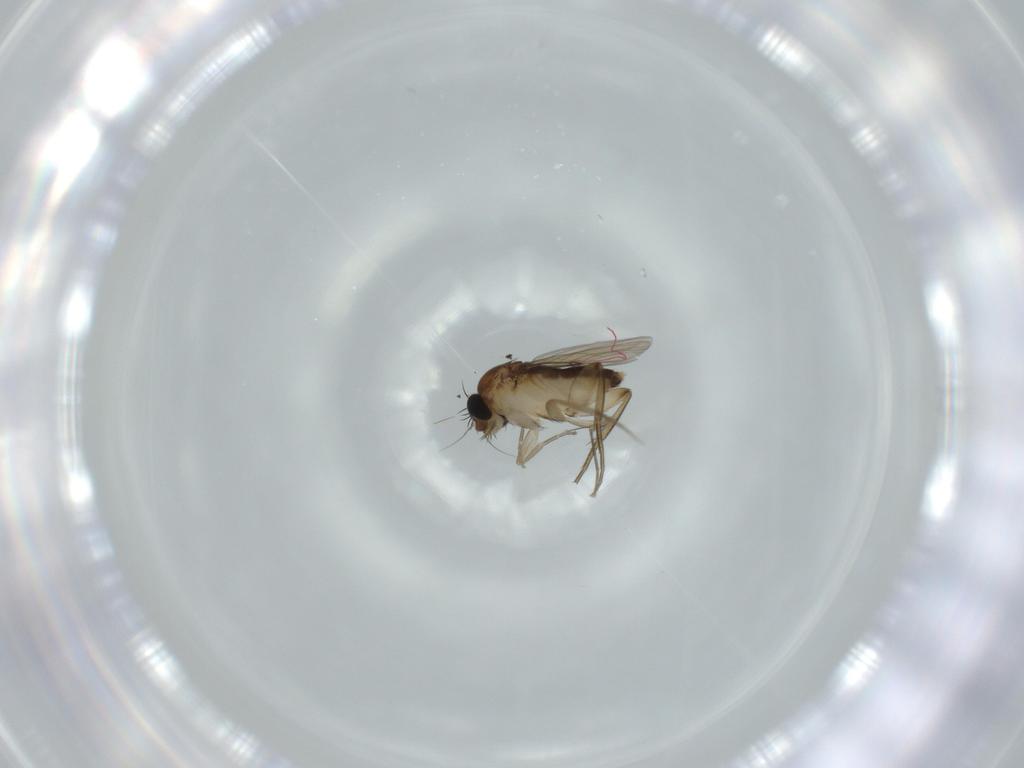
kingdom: Animalia
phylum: Arthropoda
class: Insecta
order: Diptera
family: Phoridae
